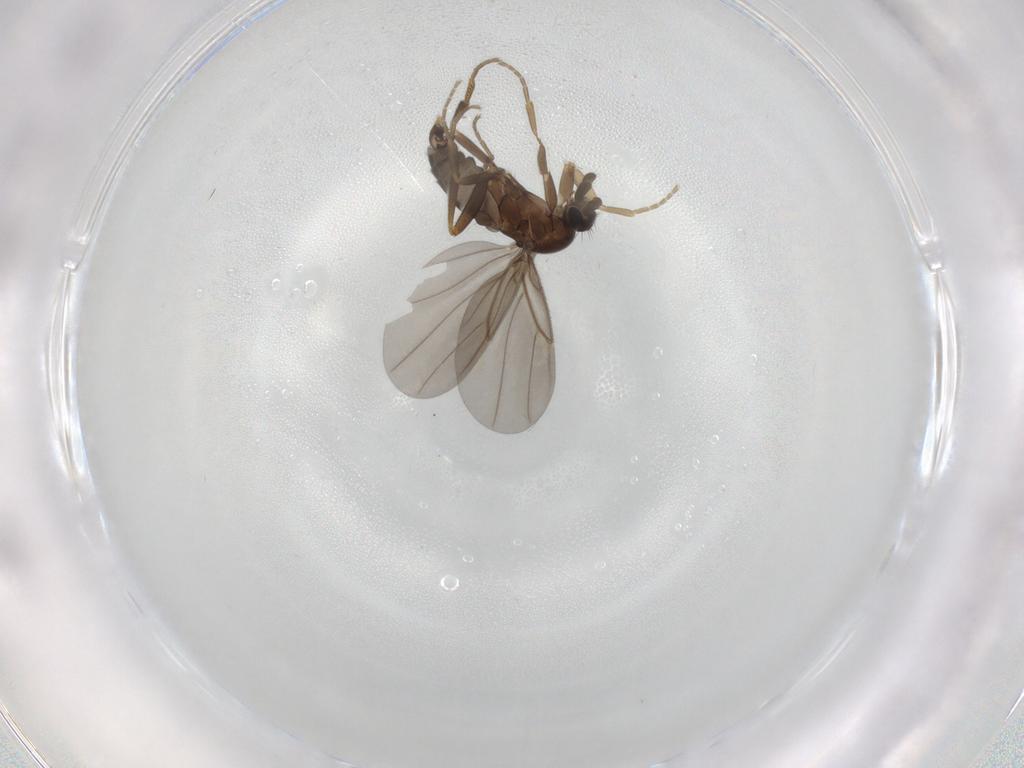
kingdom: Animalia
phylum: Arthropoda
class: Insecta
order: Diptera
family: Phoridae
